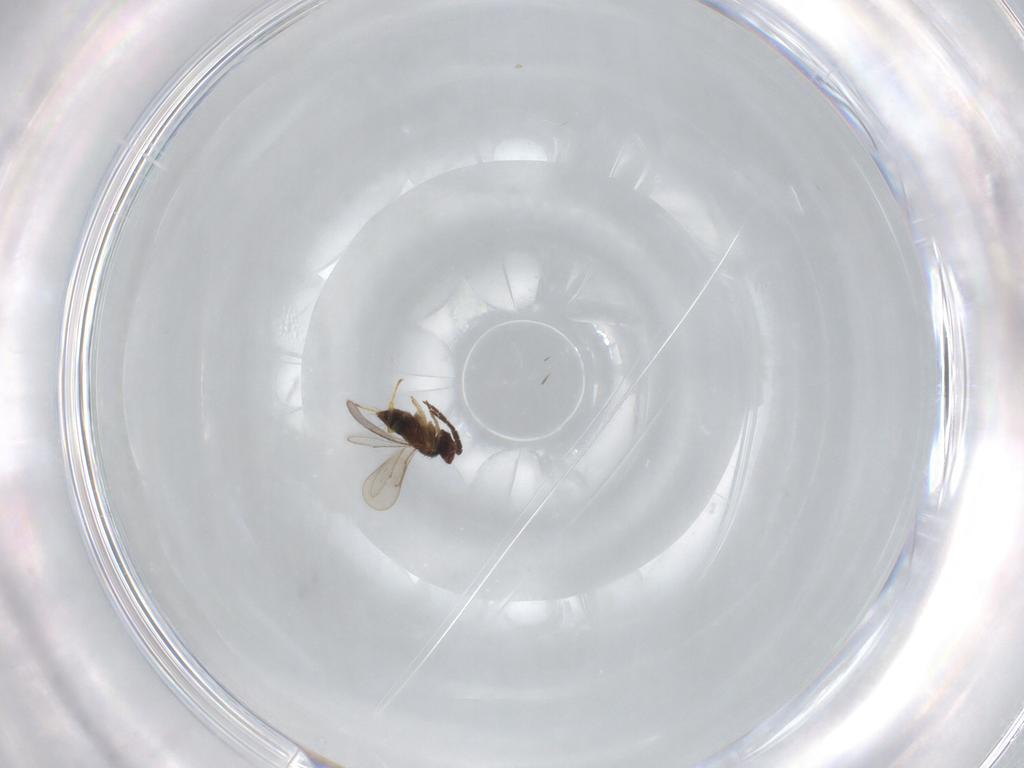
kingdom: Animalia
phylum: Arthropoda
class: Insecta
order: Hymenoptera
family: Aphelinidae
